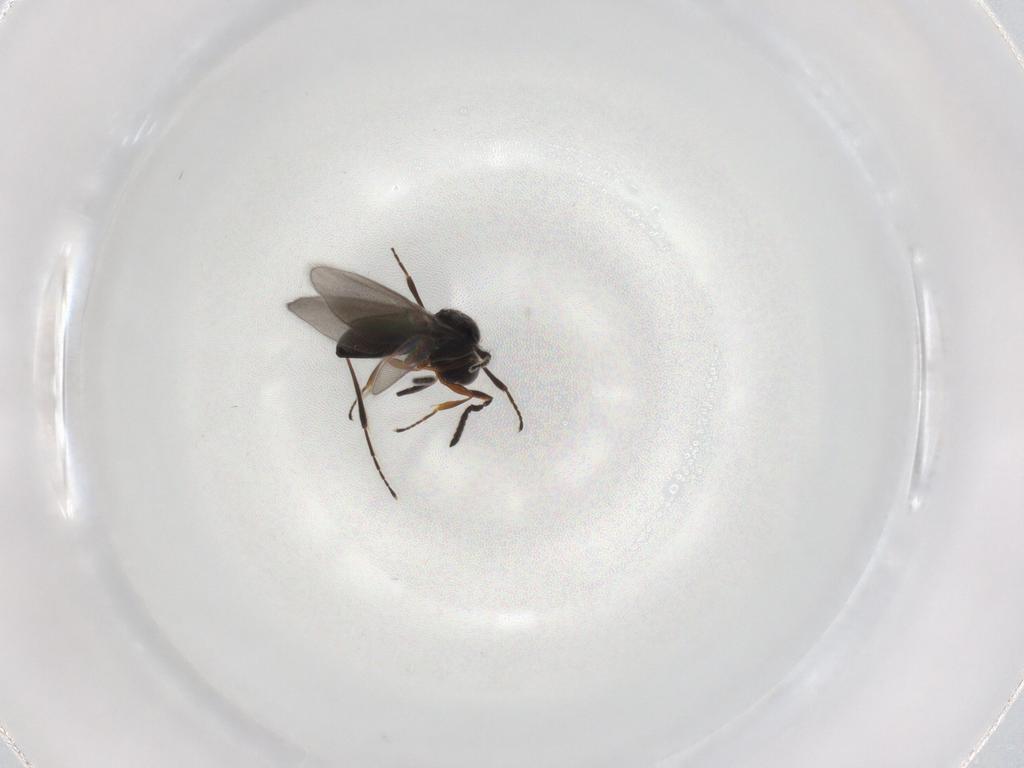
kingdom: Animalia
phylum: Arthropoda
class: Insecta
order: Hymenoptera
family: Platygastridae
